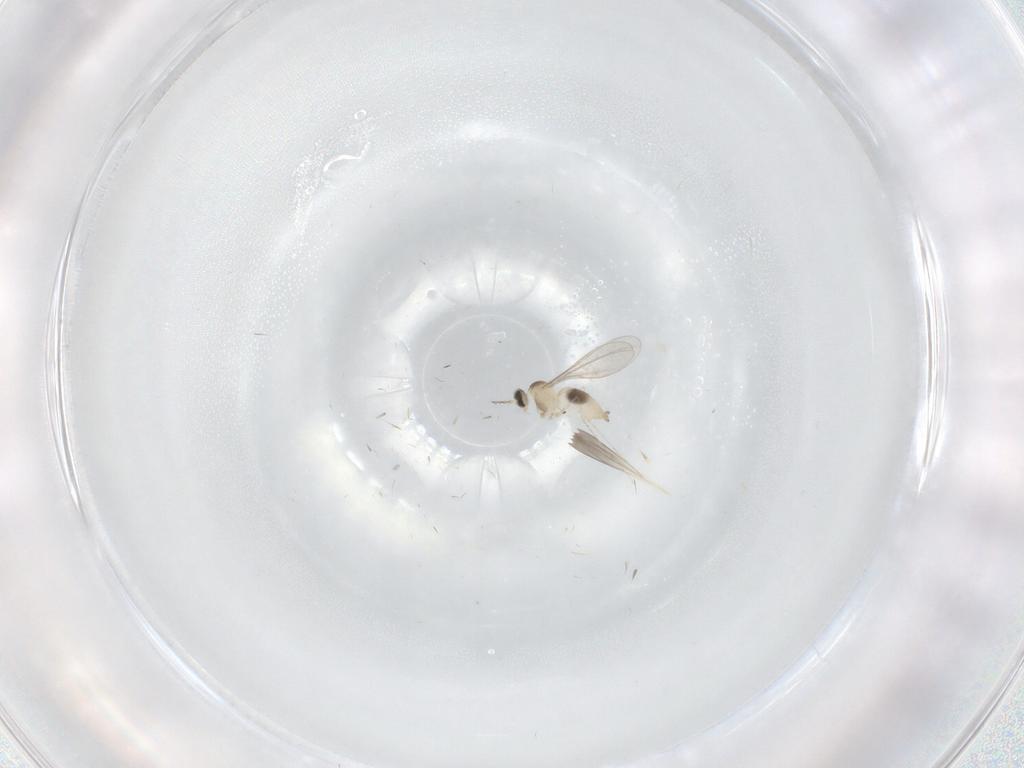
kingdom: Animalia
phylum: Arthropoda
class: Insecta
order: Diptera
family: Cecidomyiidae
